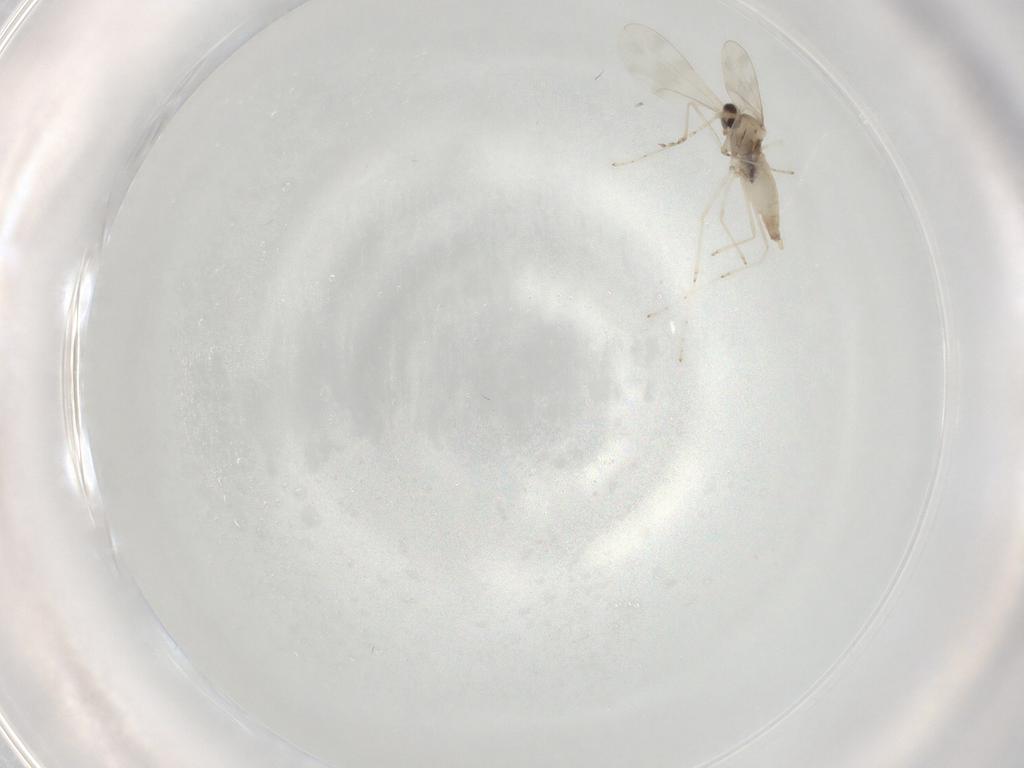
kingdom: Animalia
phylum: Arthropoda
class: Insecta
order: Diptera
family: Cecidomyiidae
